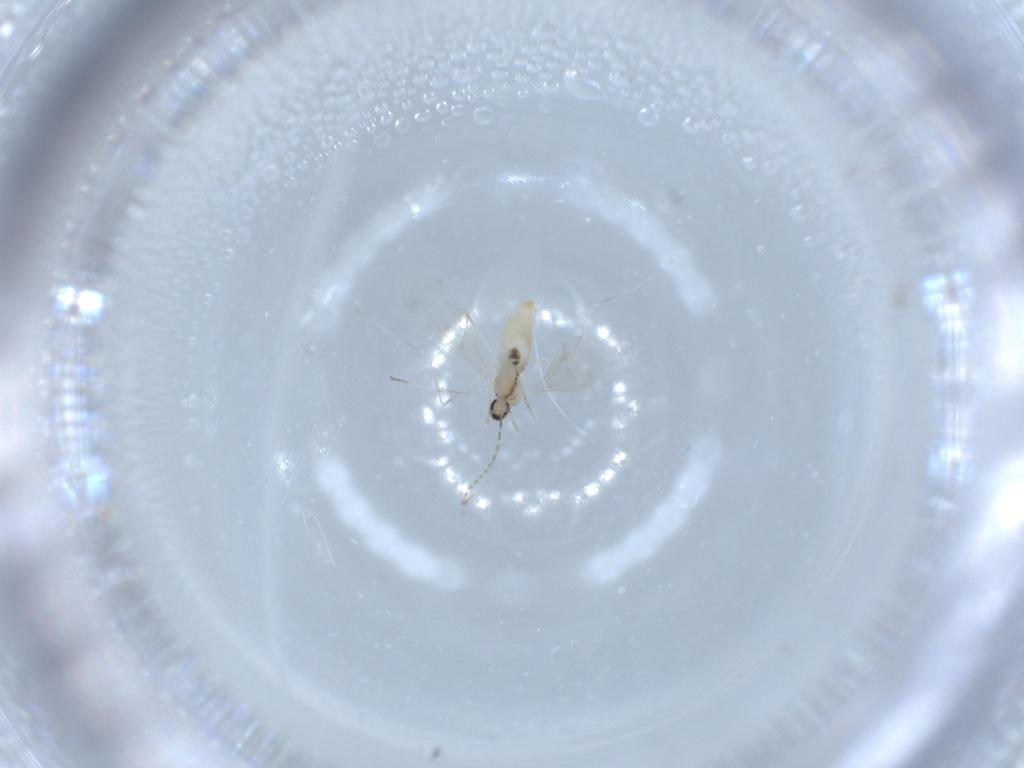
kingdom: Animalia
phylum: Arthropoda
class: Insecta
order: Diptera
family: Cecidomyiidae
